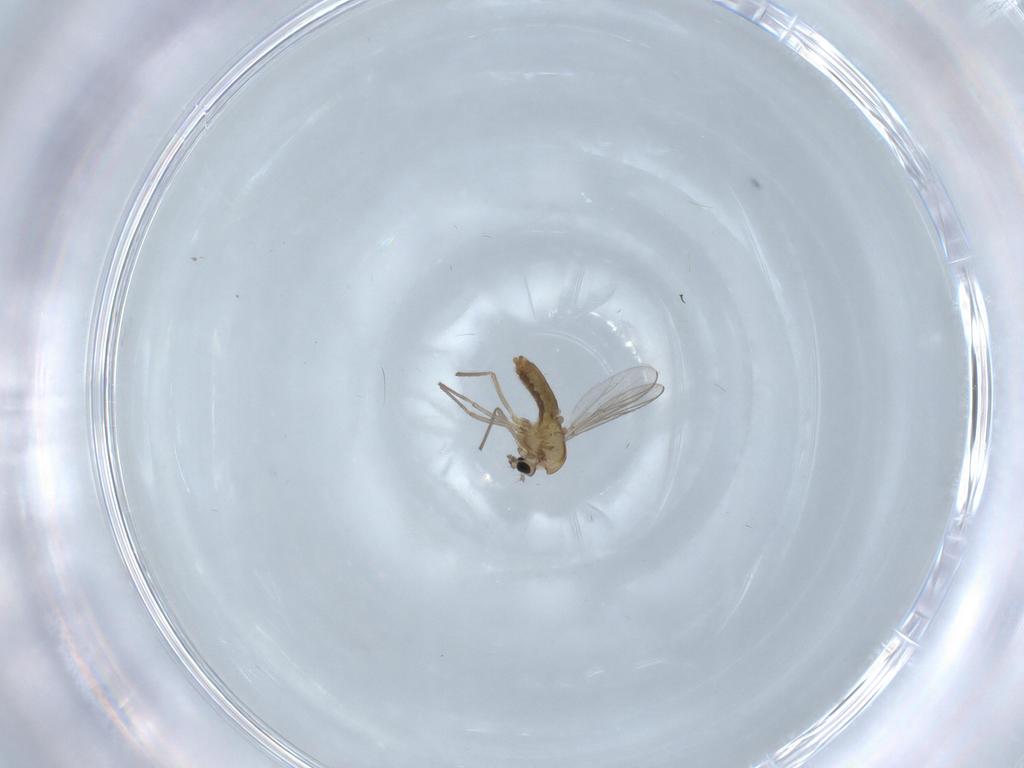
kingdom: Animalia
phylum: Arthropoda
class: Insecta
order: Diptera
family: Chironomidae
